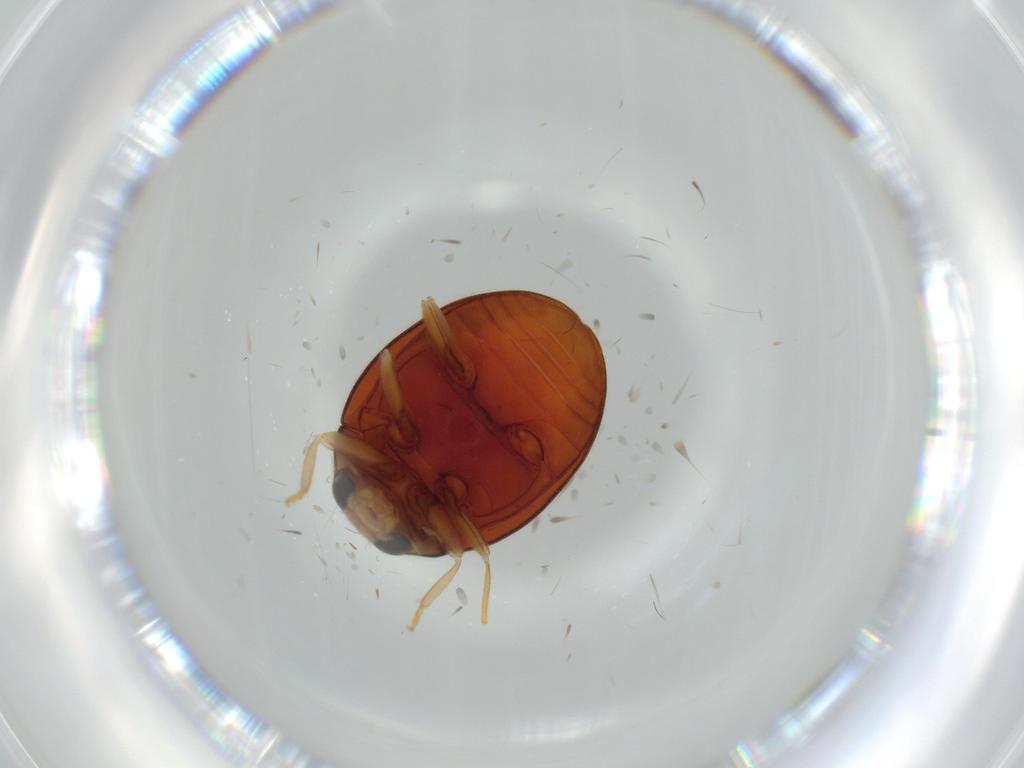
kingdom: Animalia
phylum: Arthropoda
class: Insecta
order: Coleoptera
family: Coccinellidae
